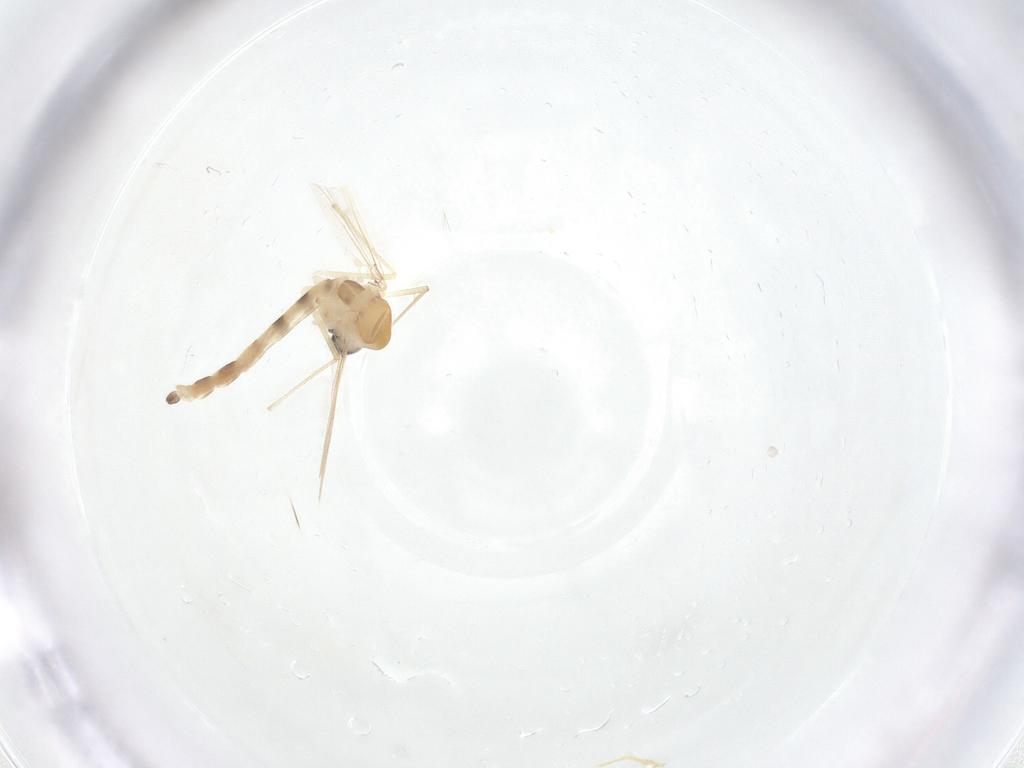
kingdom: Animalia
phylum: Arthropoda
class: Insecta
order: Diptera
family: Chironomidae
